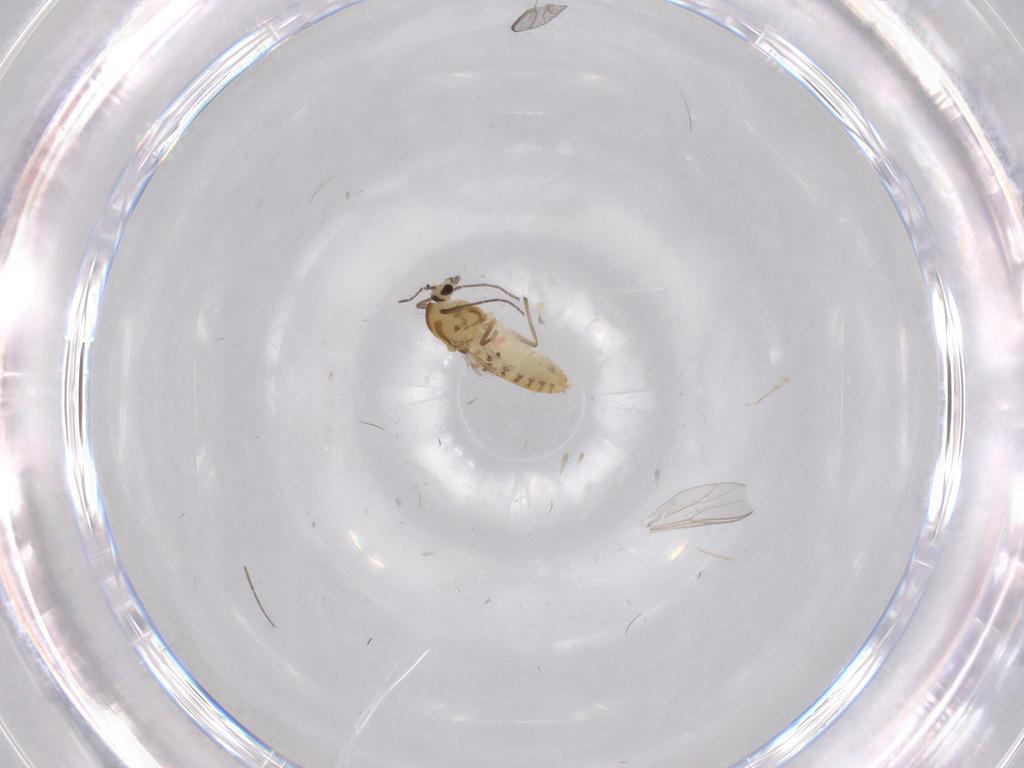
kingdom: Animalia
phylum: Arthropoda
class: Insecta
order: Diptera
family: Chironomidae
